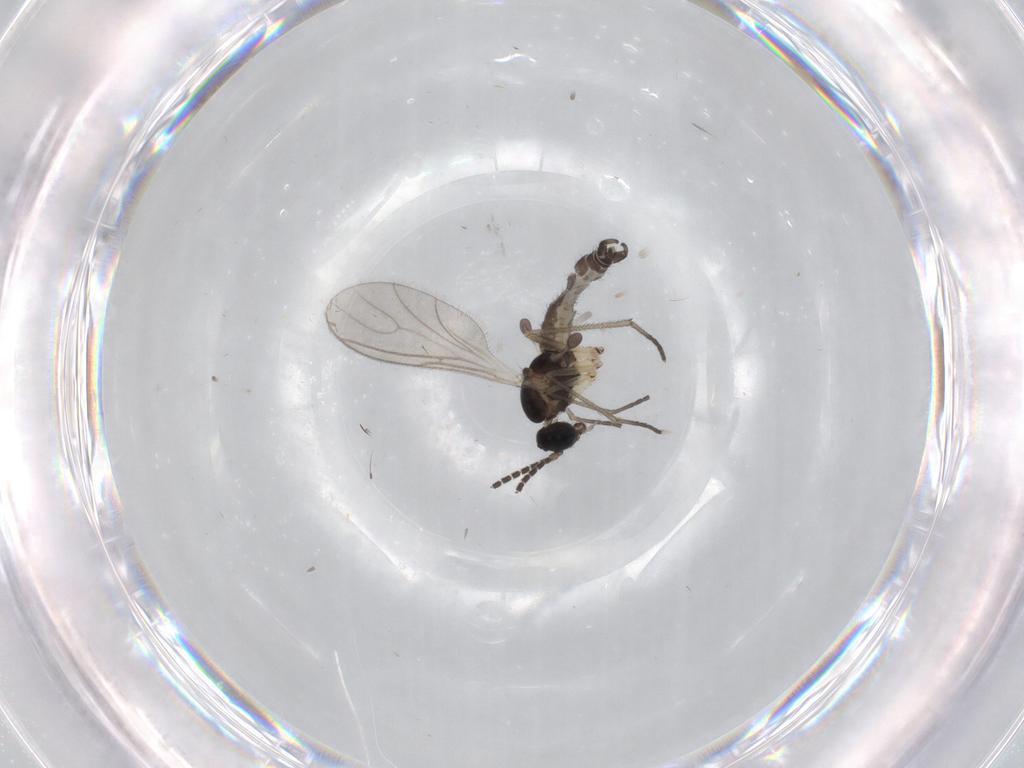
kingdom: Animalia
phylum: Arthropoda
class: Insecta
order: Diptera
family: Sciaridae
